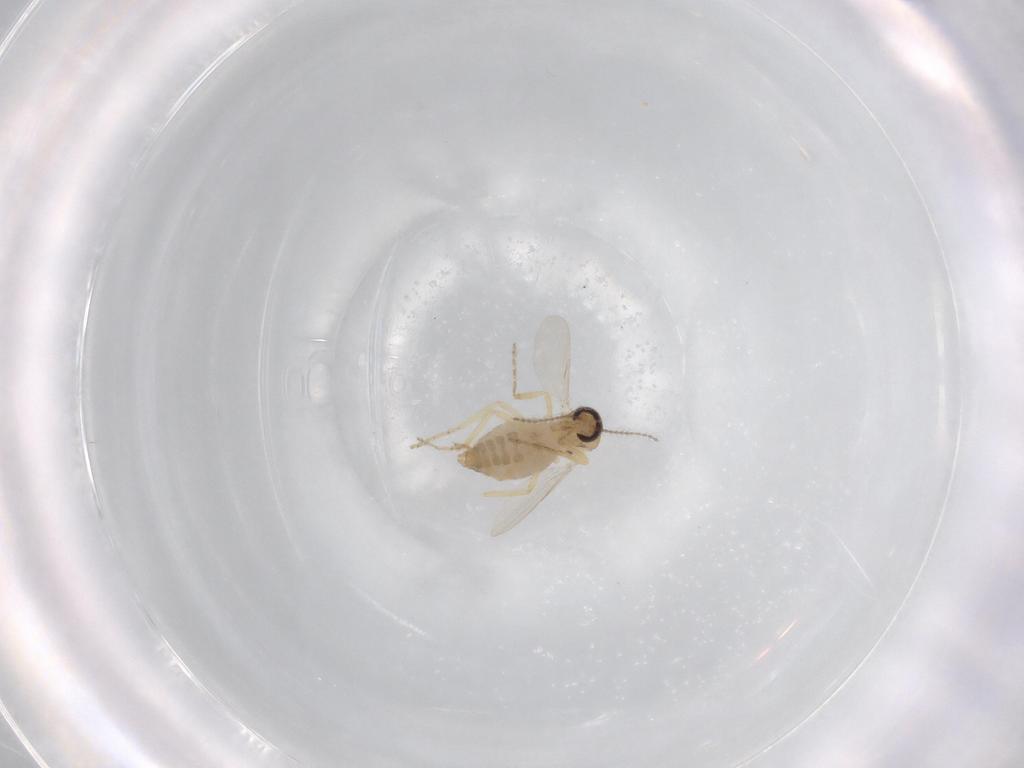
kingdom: Animalia
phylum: Arthropoda
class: Insecta
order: Diptera
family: Ceratopogonidae
